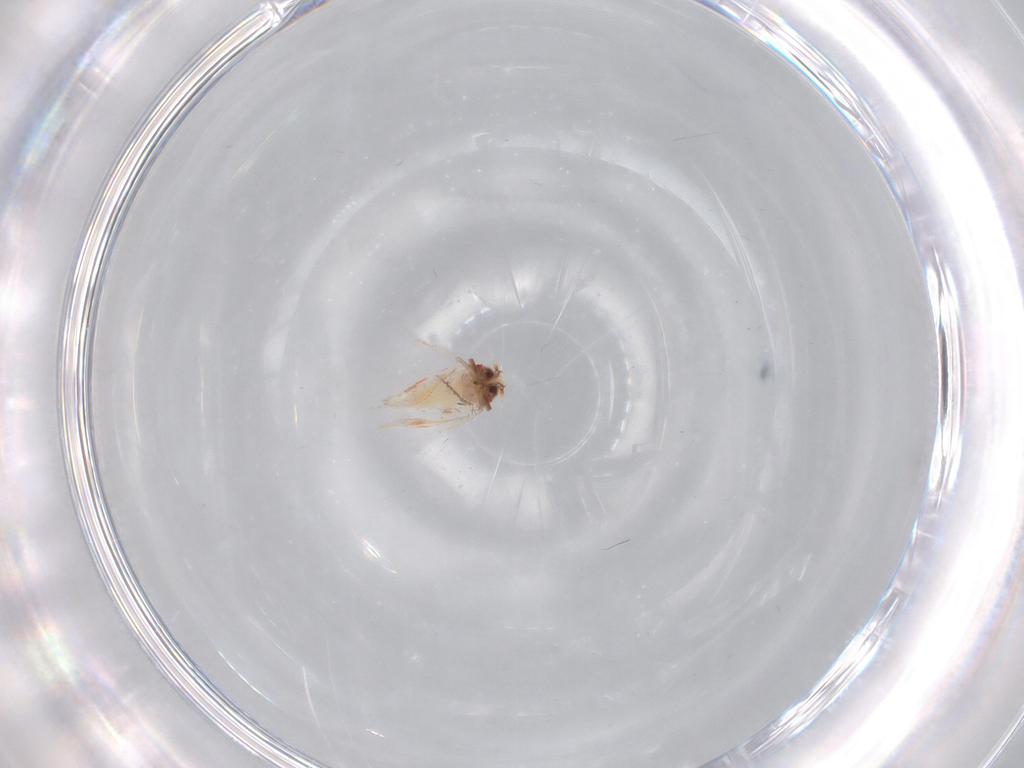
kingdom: Animalia
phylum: Arthropoda
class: Insecta
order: Hemiptera
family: Aleyrodidae
